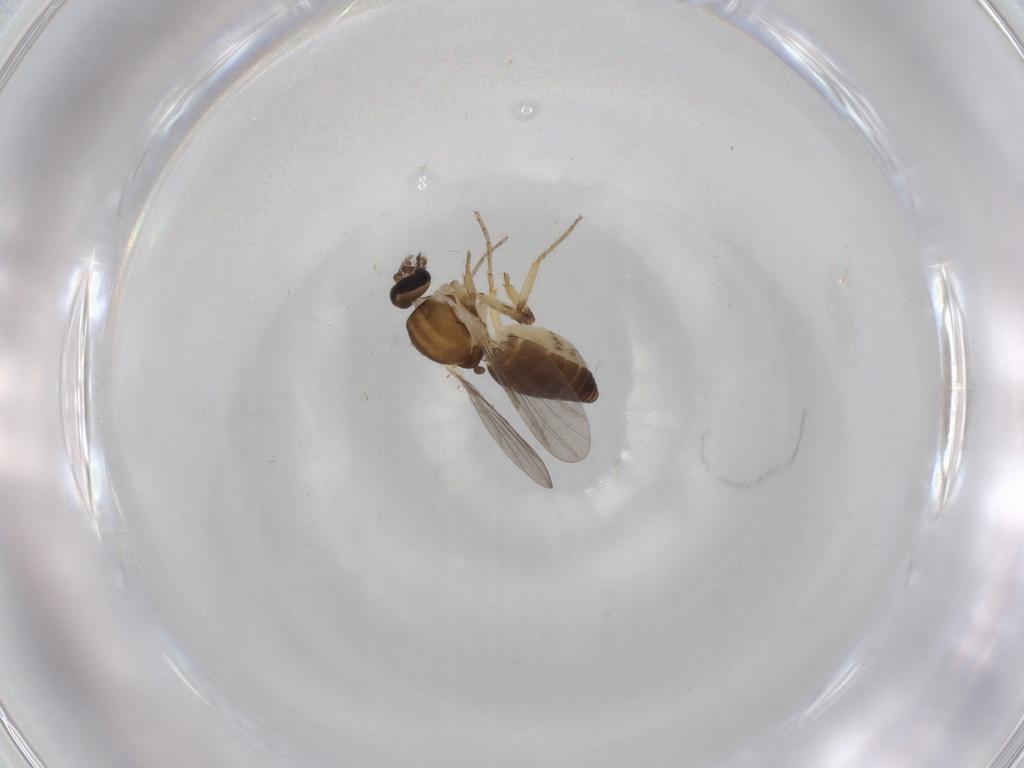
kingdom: Animalia
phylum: Arthropoda
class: Insecta
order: Diptera
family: Ceratopogonidae
